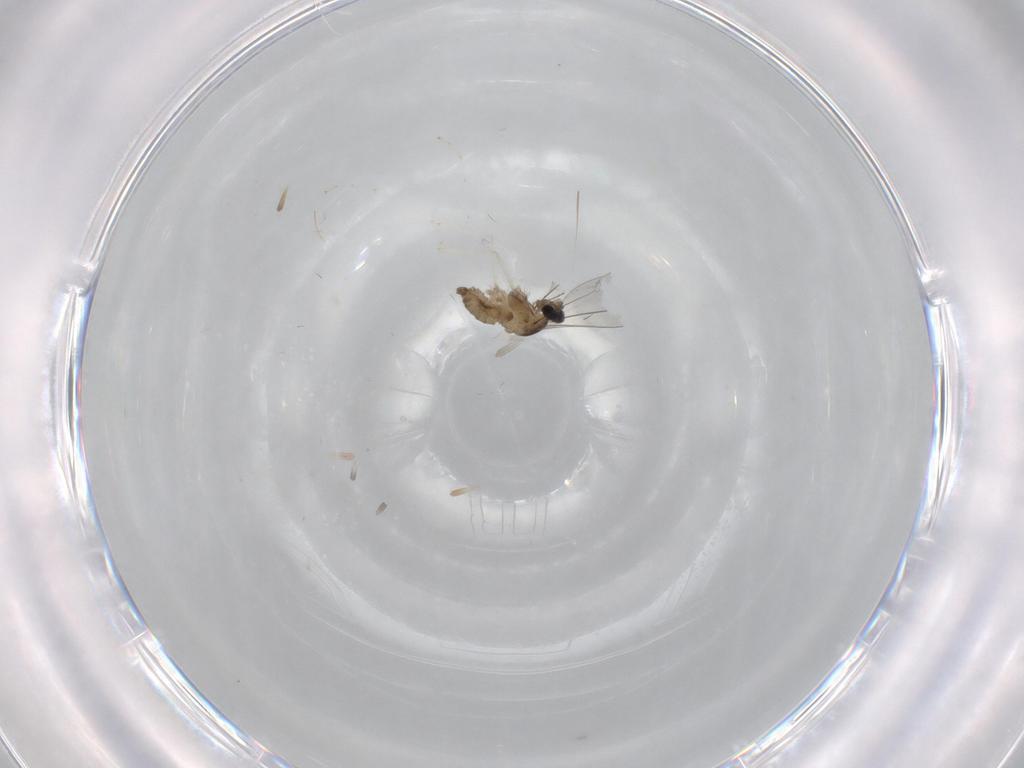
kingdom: Animalia
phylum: Arthropoda
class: Insecta
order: Diptera
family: Cecidomyiidae
